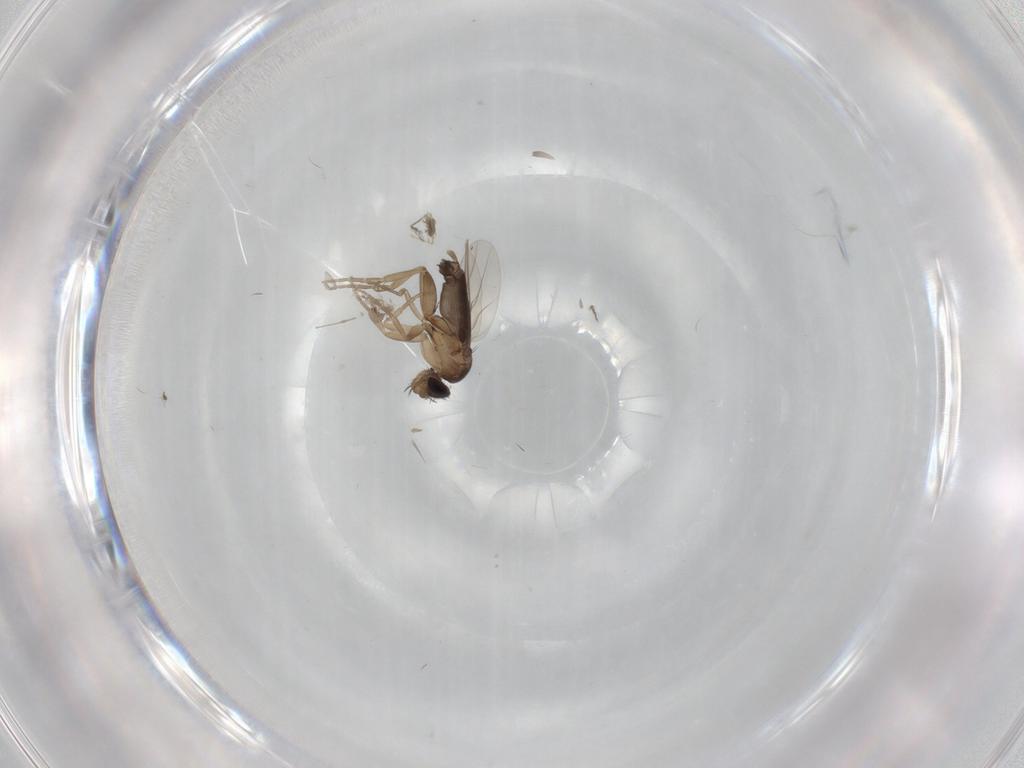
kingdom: Animalia
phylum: Arthropoda
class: Insecta
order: Diptera
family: Phoridae
